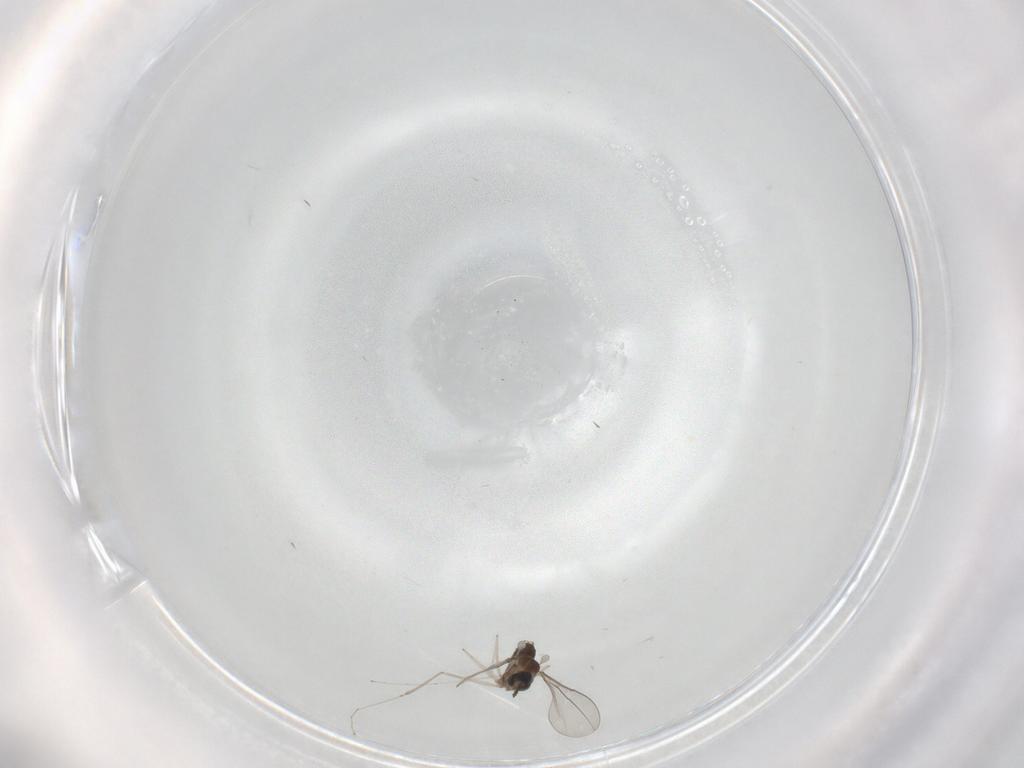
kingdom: Animalia
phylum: Arthropoda
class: Insecta
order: Diptera
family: Cecidomyiidae
